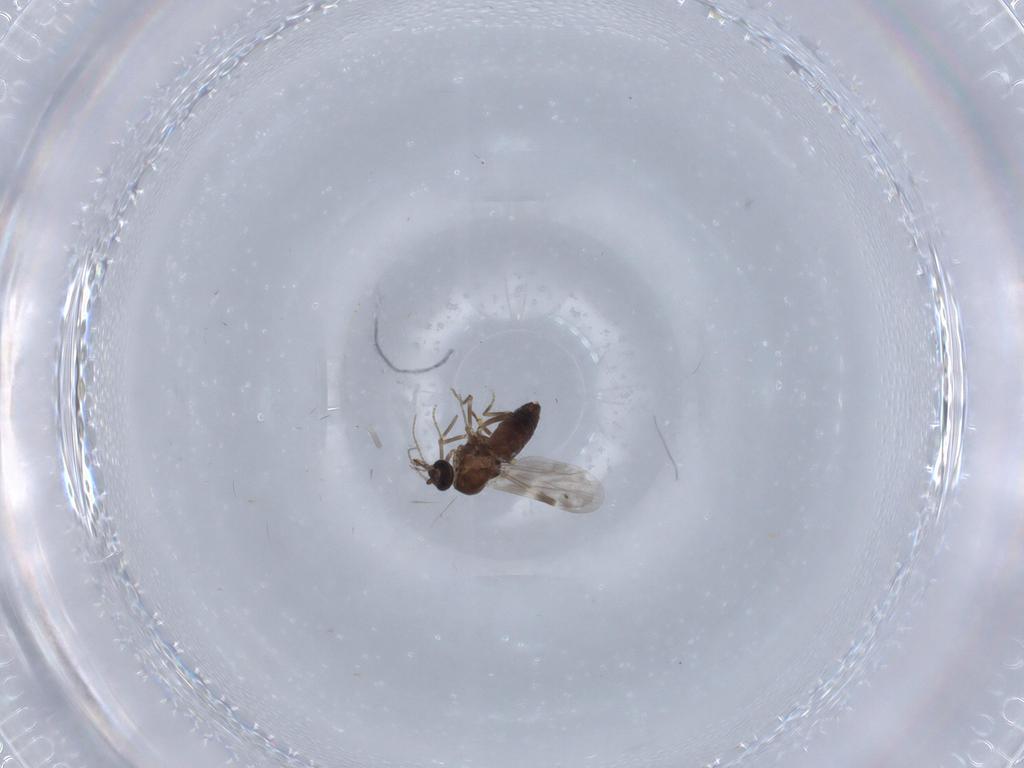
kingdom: Animalia
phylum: Arthropoda
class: Insecta
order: Diptera
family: Ceratopogonidae
